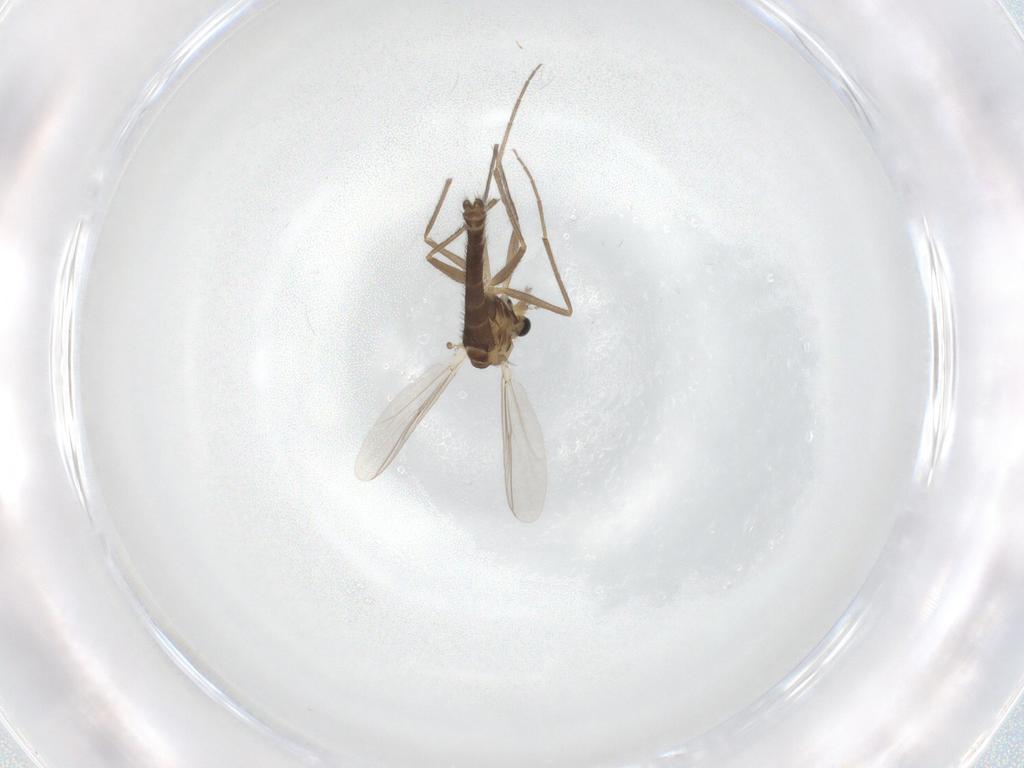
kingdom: Animalia
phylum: Arthropoda
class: Insecta
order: Diptera
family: Chironomidae
